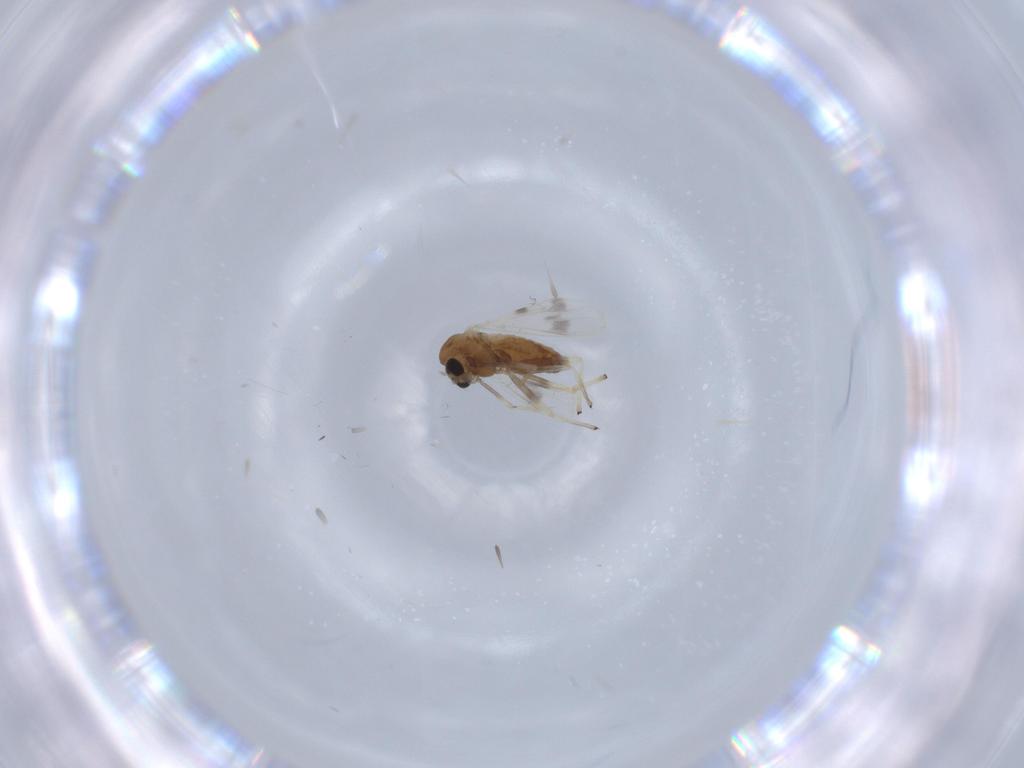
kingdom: Animalia
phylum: Arthropoda
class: Insecta
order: Diptera
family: Chironomidae
